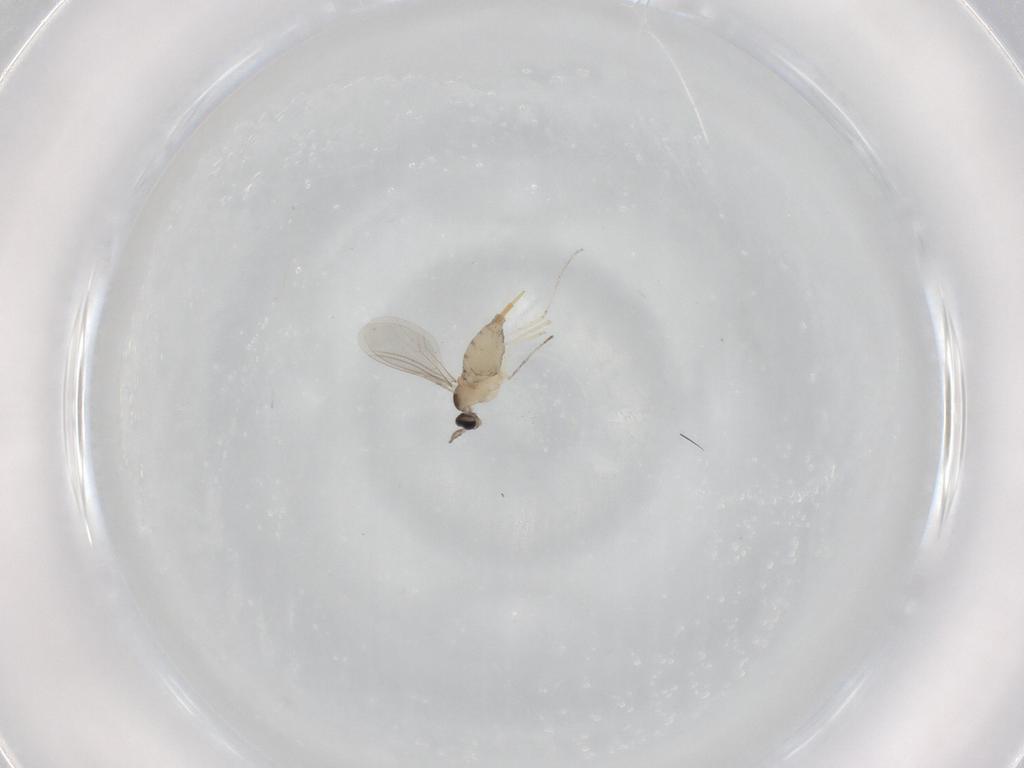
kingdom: Animalia
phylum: Arthropoda
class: Insecta
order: Diptera
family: Cecidomyiidae
